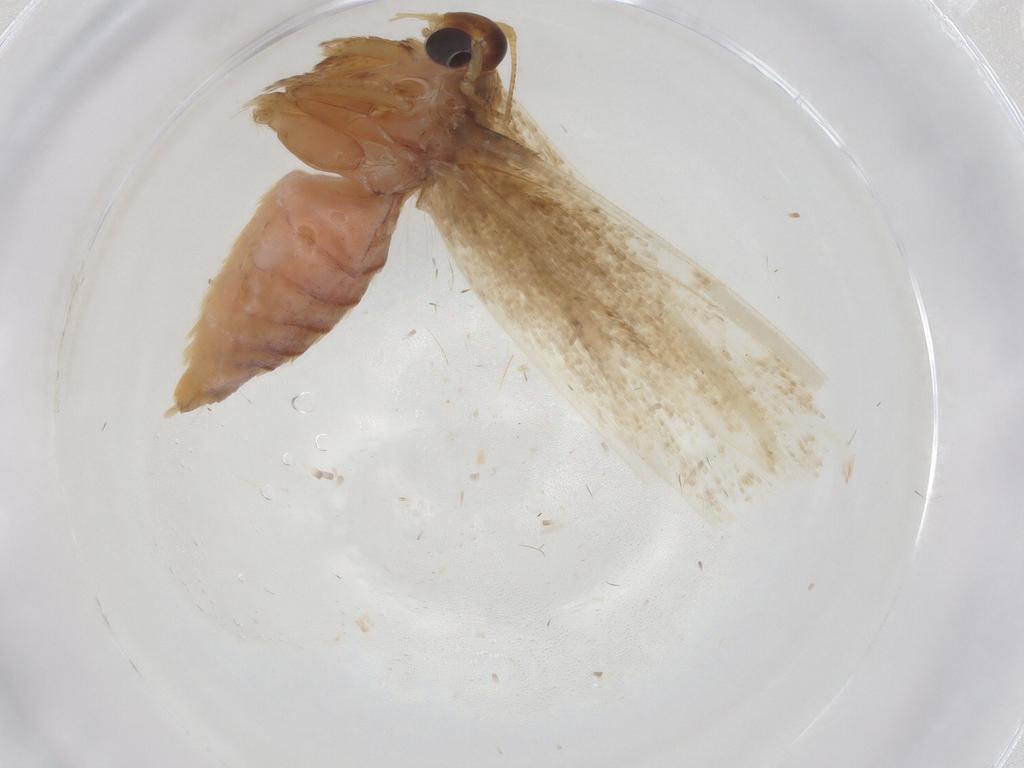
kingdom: Animalia
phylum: Arthropoda
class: Insecta
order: Lepidoptera
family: Blastobasidae
